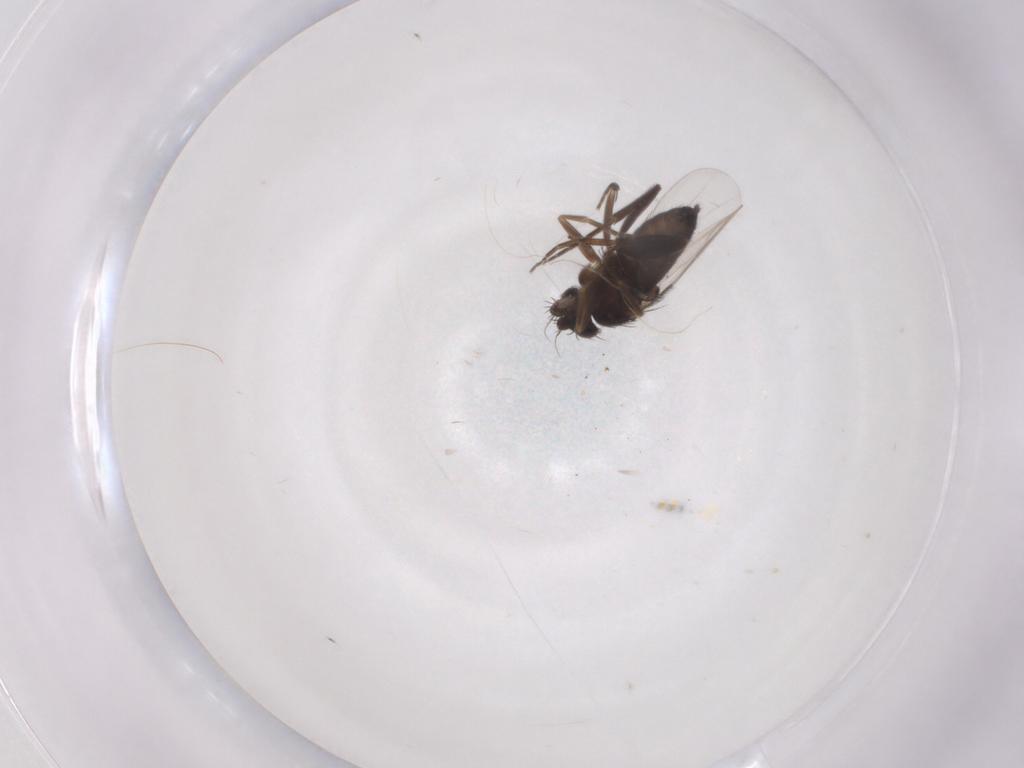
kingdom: Animalia
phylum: Arthropoda
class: Insecta
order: Diptera
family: Phoridae
